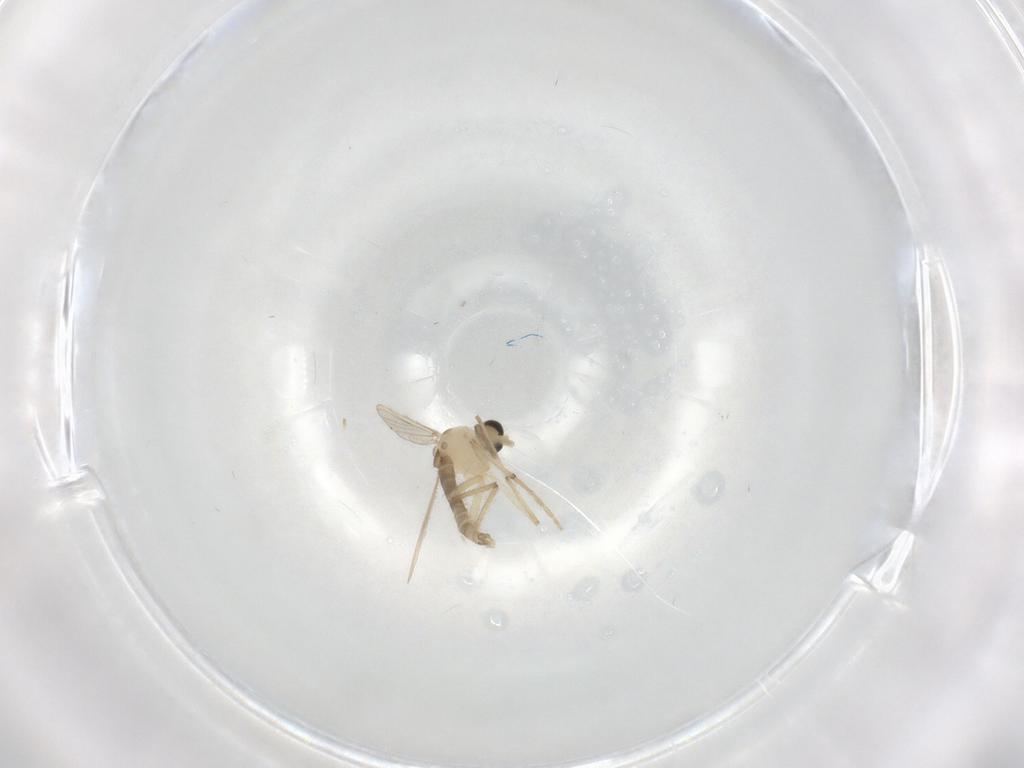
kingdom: Animalia
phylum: Arthropoda
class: Insecta
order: Diptera
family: Chironomidae
